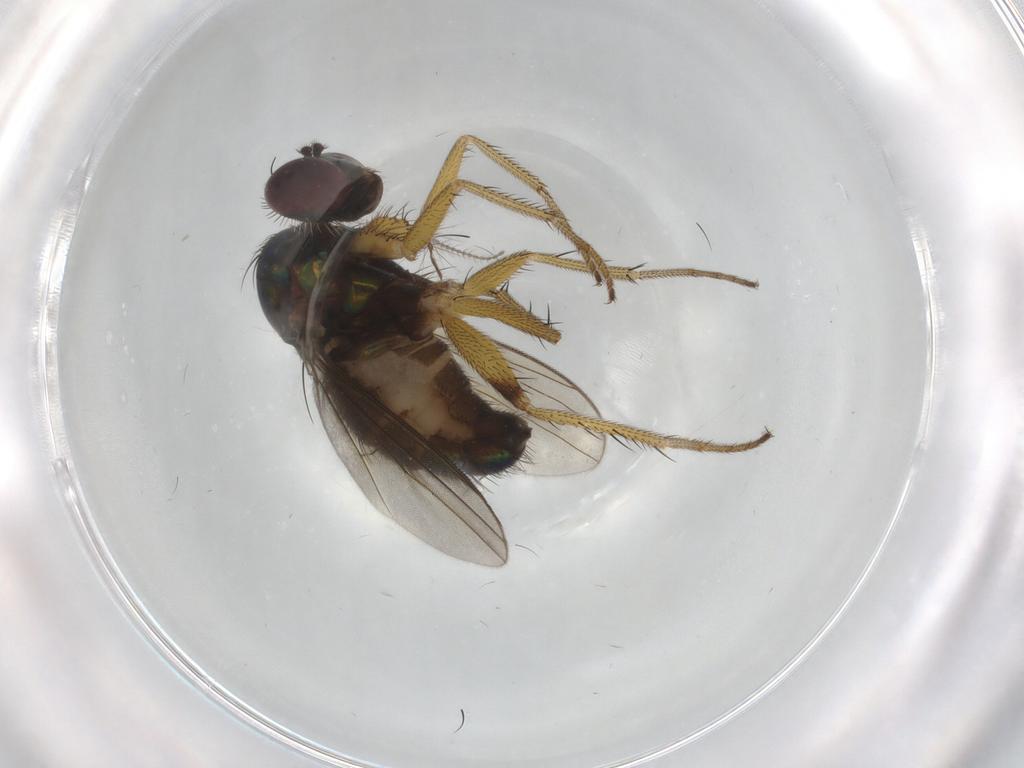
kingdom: Animalia
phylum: Arthropoda
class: Insecta
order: Diptera
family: Dolichopodidae
